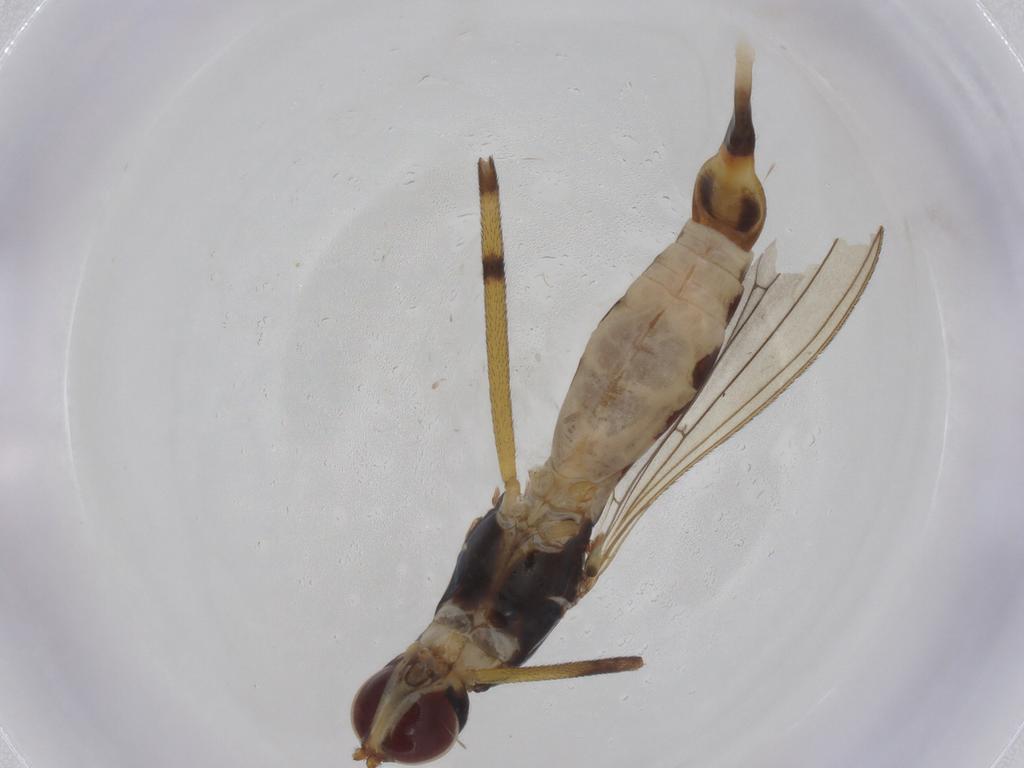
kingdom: Animalia
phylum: Arthropoda
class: Insecta
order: Diptera
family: Micropezidae
